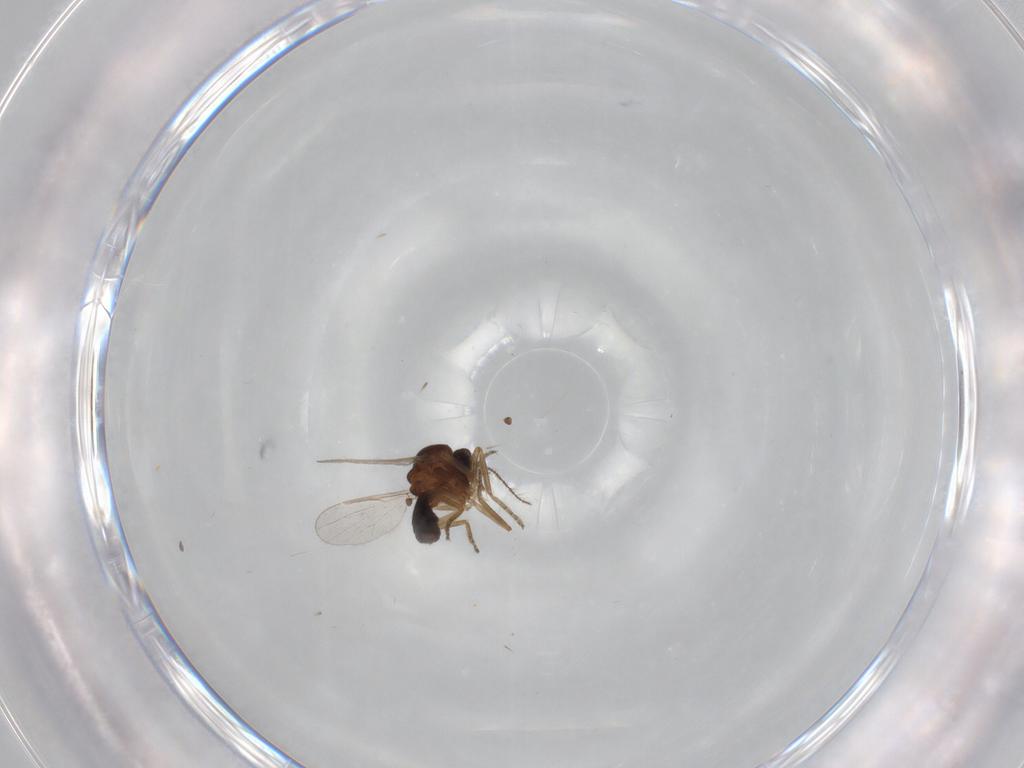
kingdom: Animalia
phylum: Arthropoda
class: Insecta
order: Diptera
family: Ceratopogonidae
